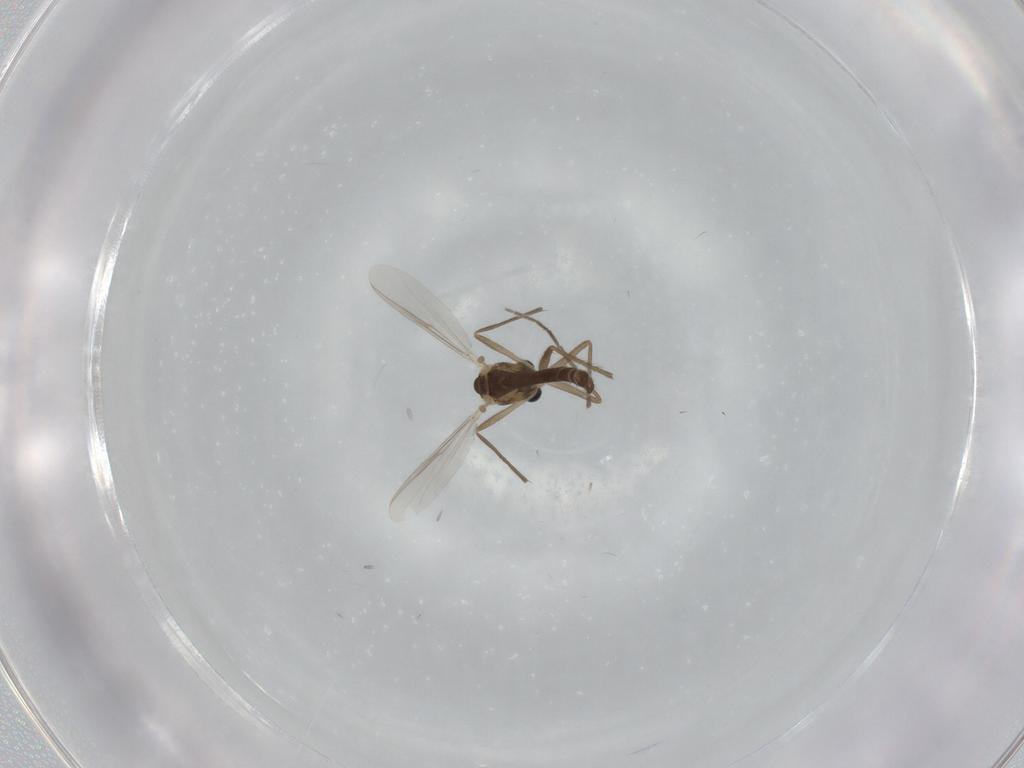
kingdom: Animalia
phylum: Arthropoda
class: Insecta
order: Diptera
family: Chironomidae
